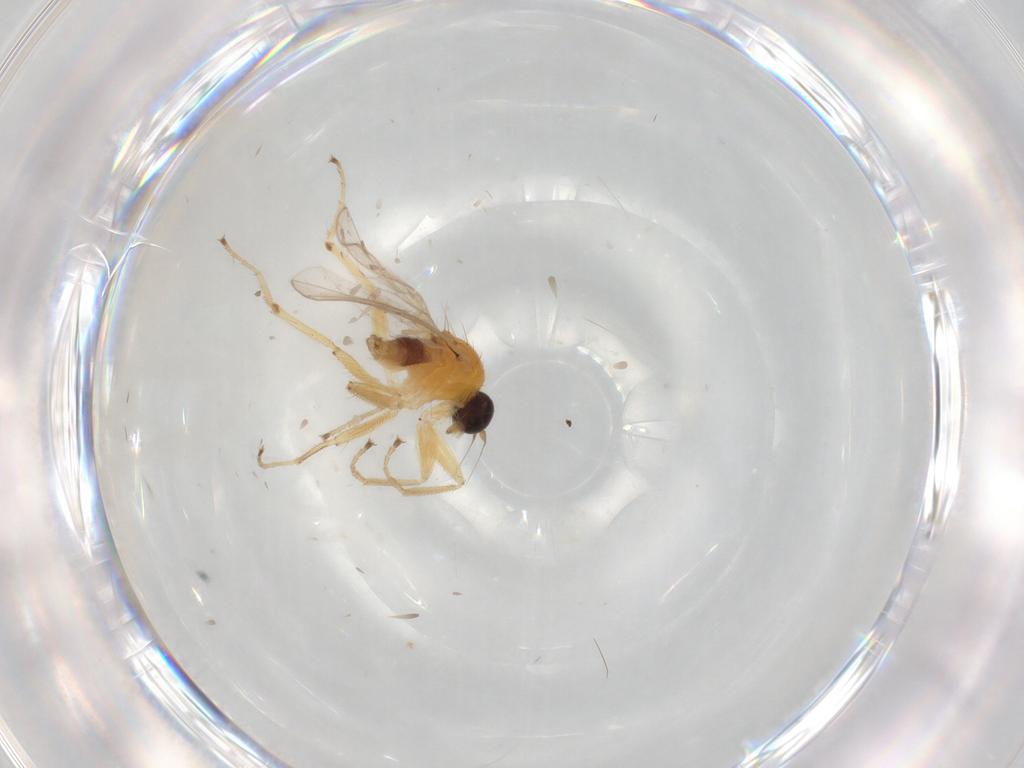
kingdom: Animalia
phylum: Arthropoda
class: Insecta
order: Diptera
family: Hybotidae
